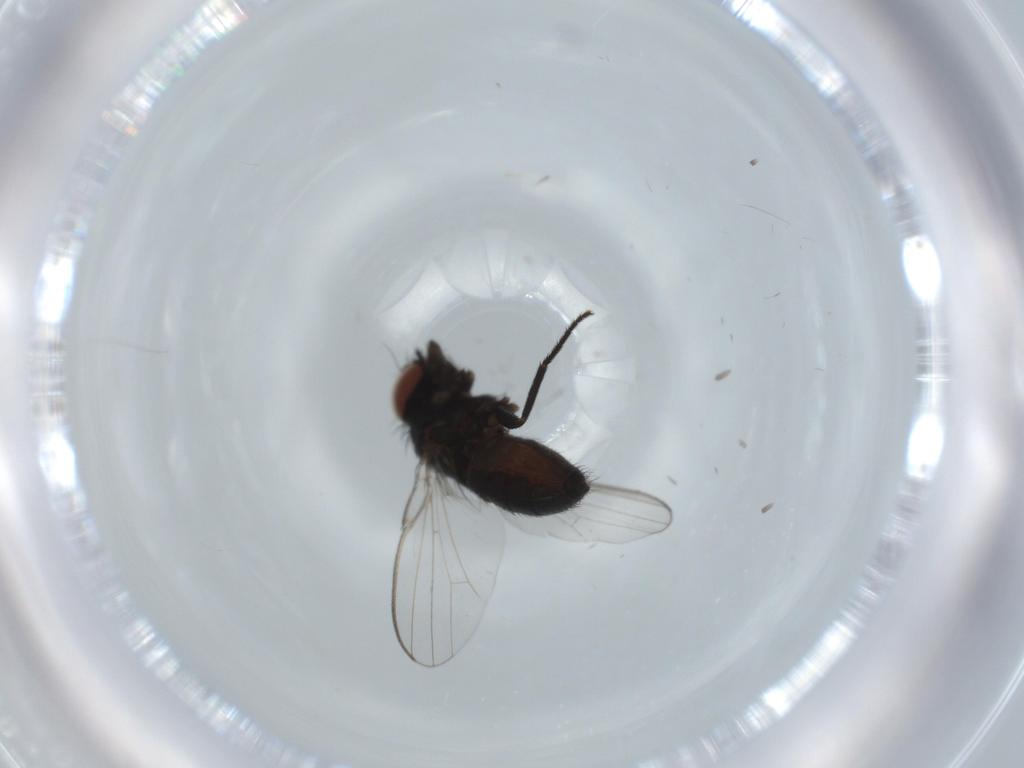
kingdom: Animalia
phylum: Arthropoda
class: Insecta
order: Diptera
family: Milichiidae
